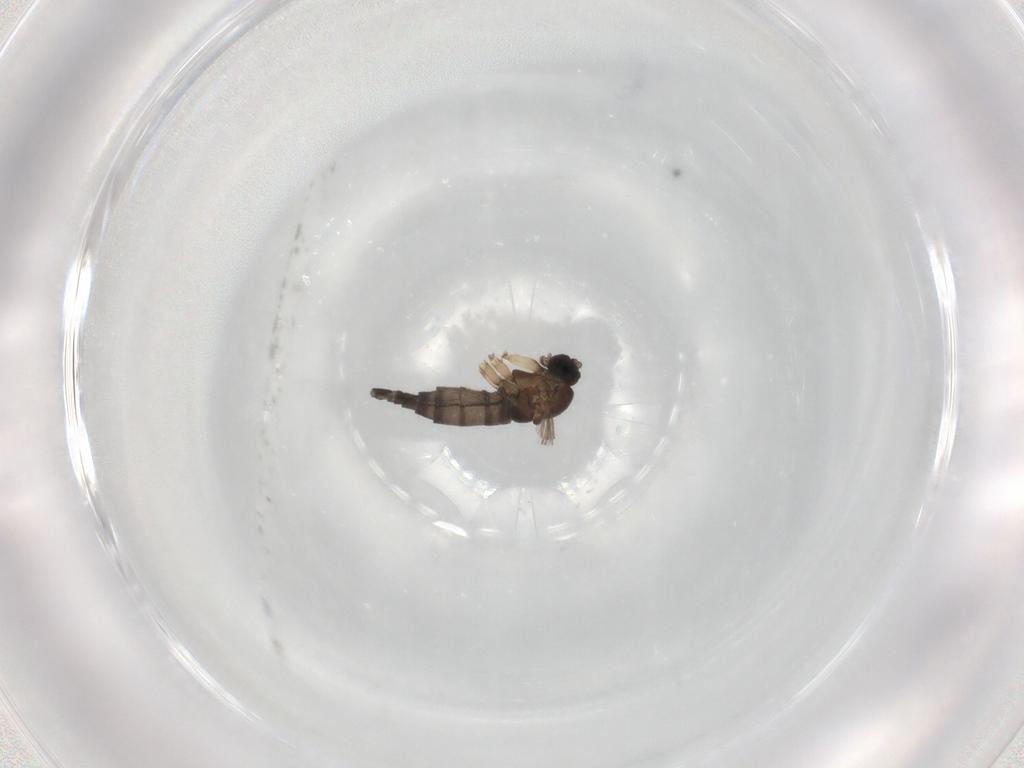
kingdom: Animalia
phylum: Arthropoda
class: Insecta
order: Diptera
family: Sciaridae
